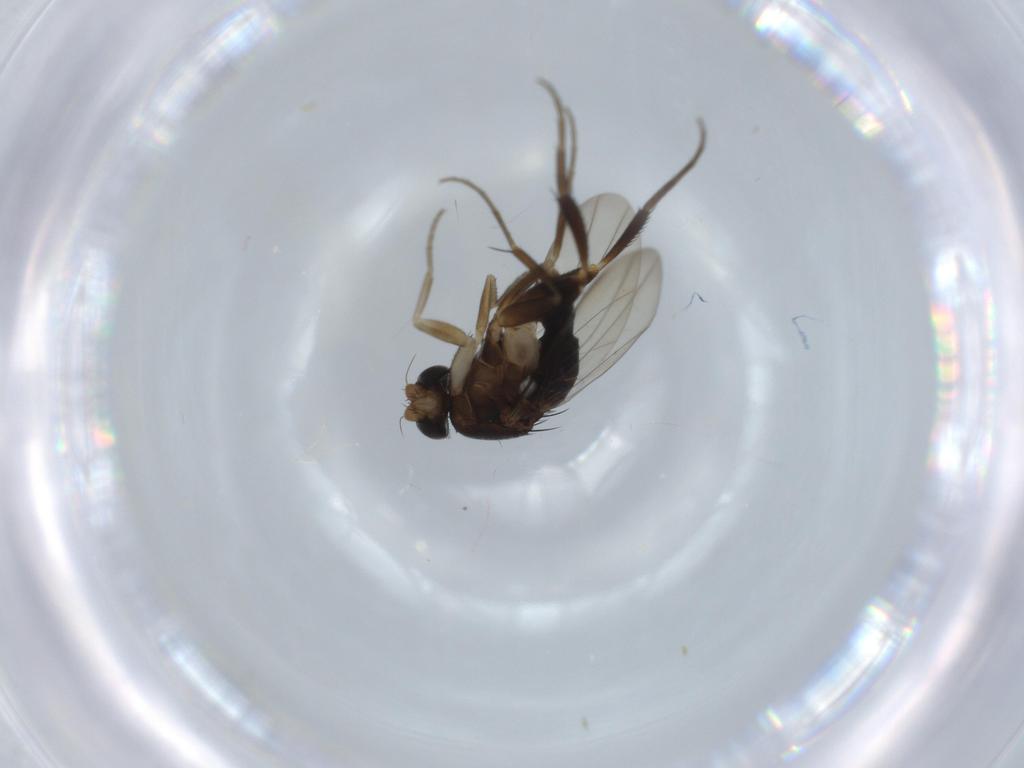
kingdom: Animalia
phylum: Arthropoda
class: Insecta
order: Diptera
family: Phoridae
